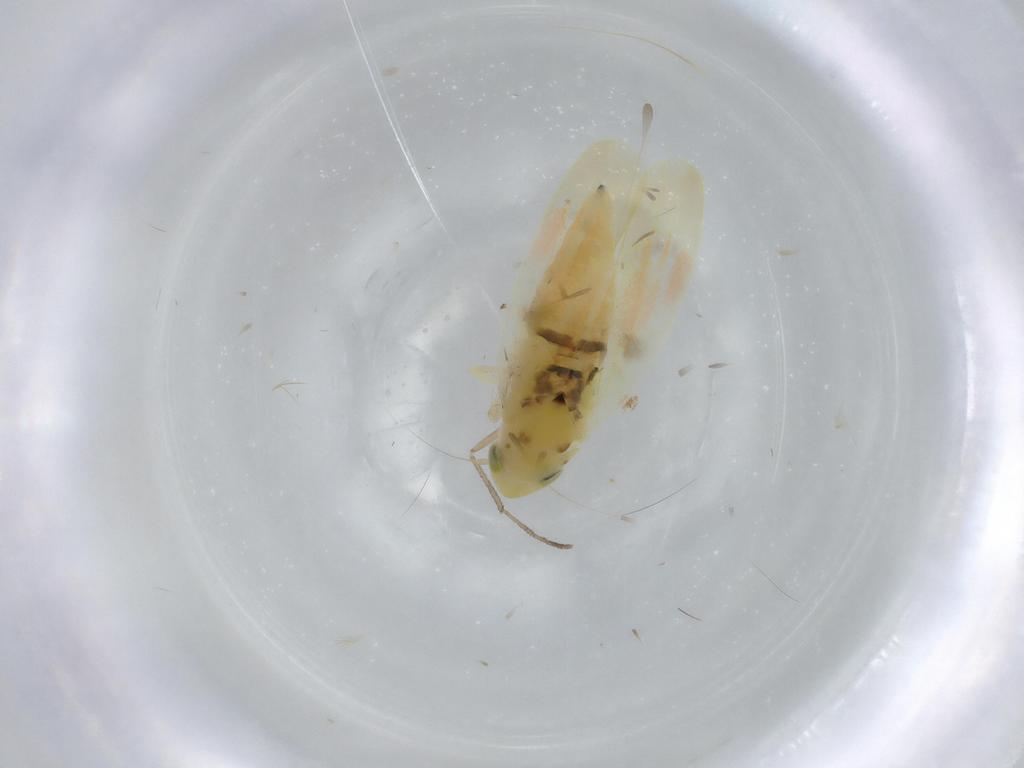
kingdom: Animalia
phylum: Arthropoda
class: Insecta
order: Hemiptera
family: Cicadellidae
